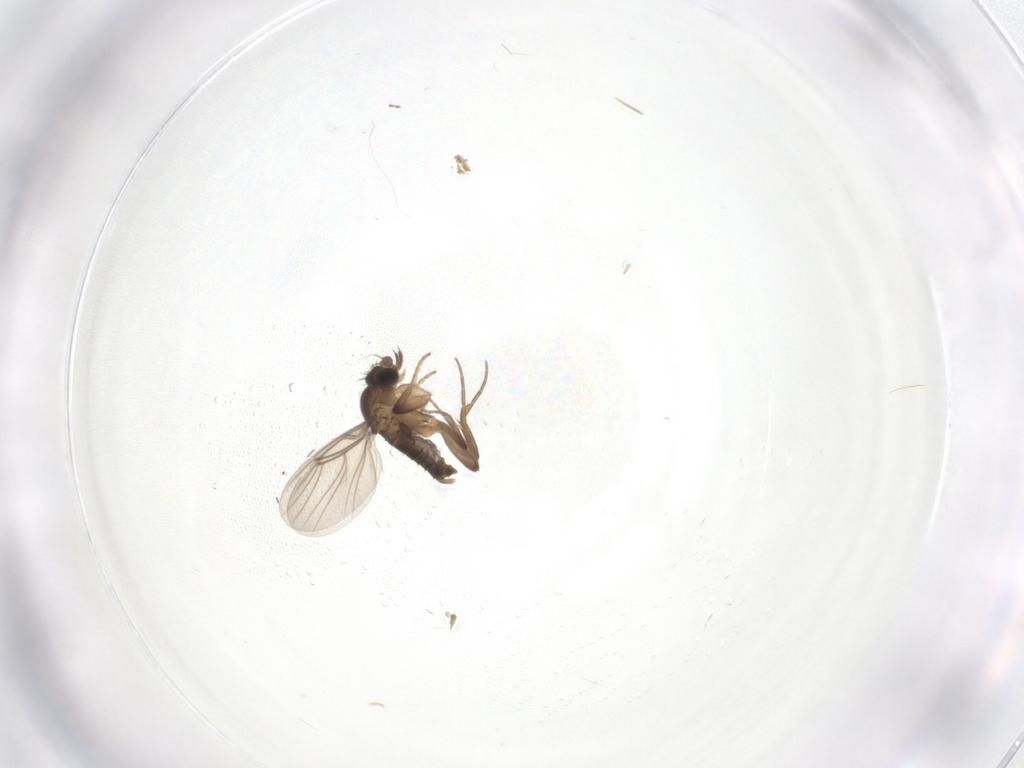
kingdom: Animalia
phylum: Arthropoda
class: Insecta
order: Diptera
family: Phoridae
